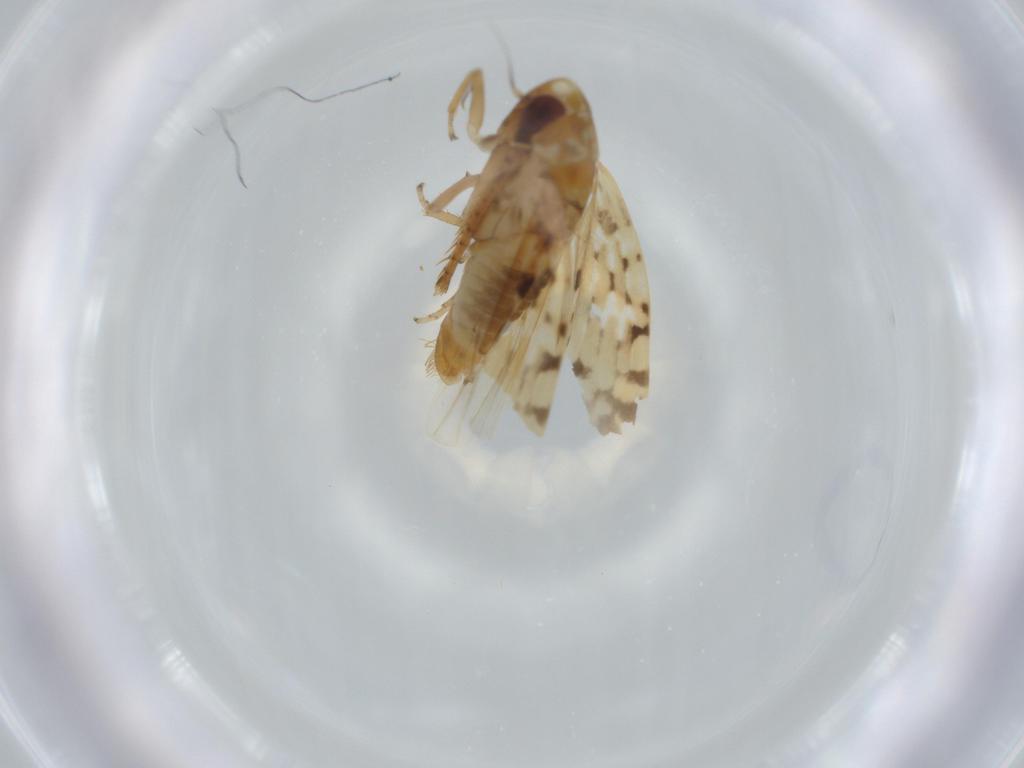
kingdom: Animalia
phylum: Arthropoda
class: Insecta
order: Hemiptera
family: Cicadellidae
